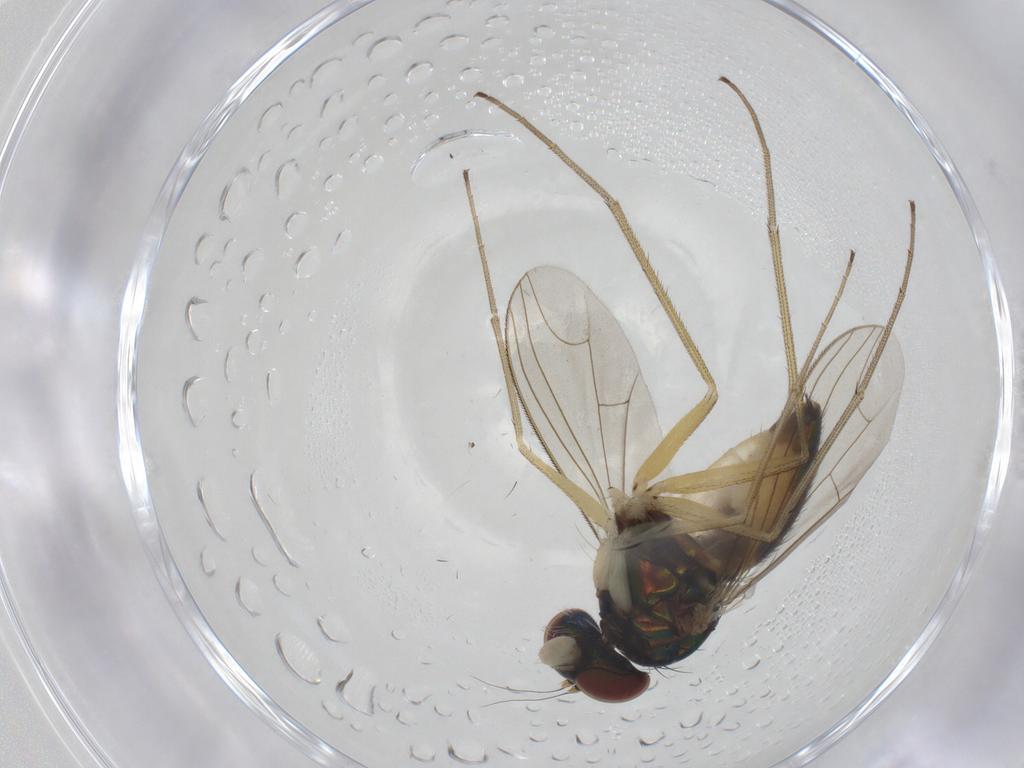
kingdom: Animalia
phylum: Arthropoda
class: Insecta
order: Diptera
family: Dolichopodidae
